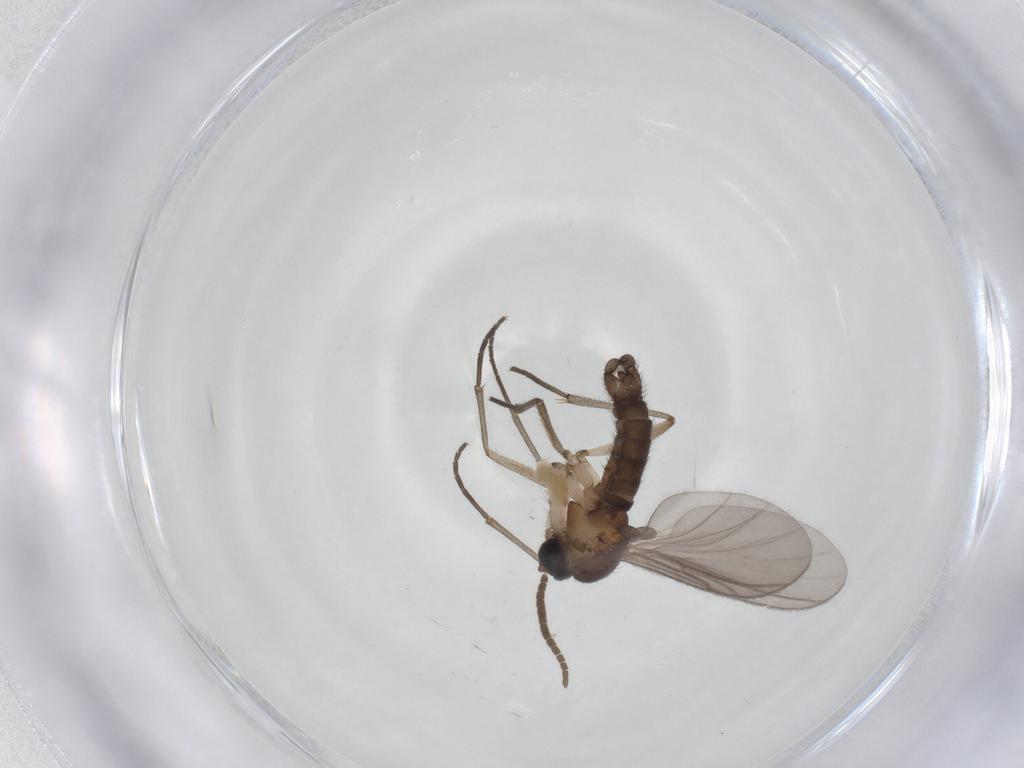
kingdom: Animalia
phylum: Arthropoda
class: Insecta
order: Diptera
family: Chironomidae
